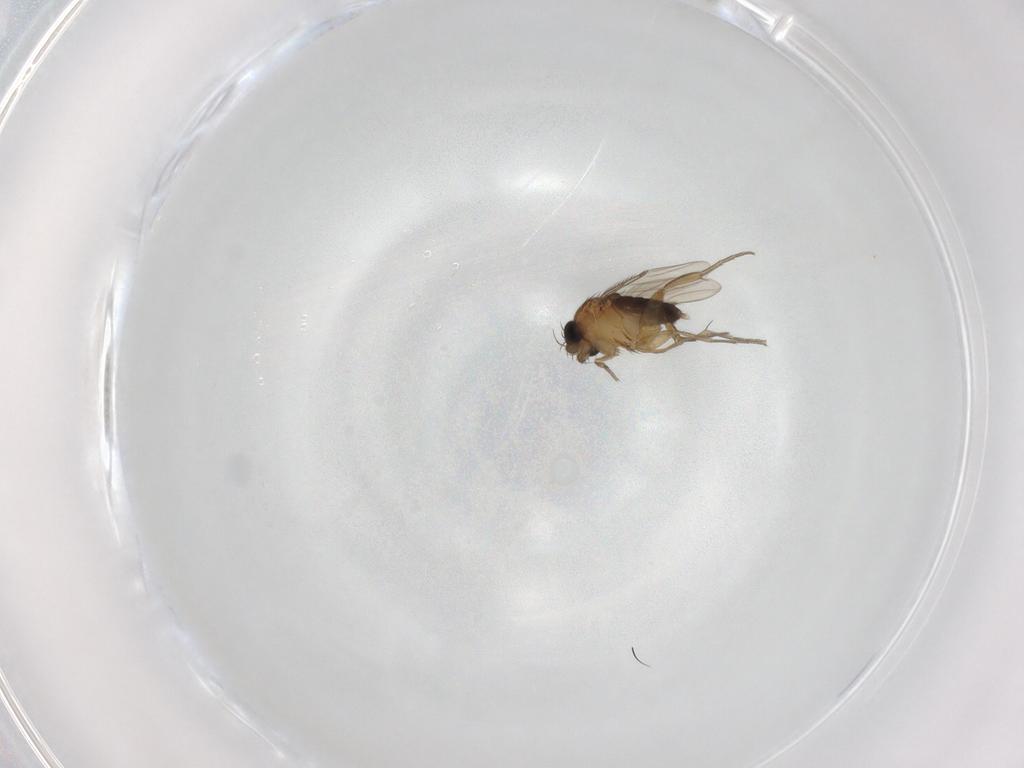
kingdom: Animalia
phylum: Arthropoda
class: Insecta
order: Diptera
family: Phoridae
